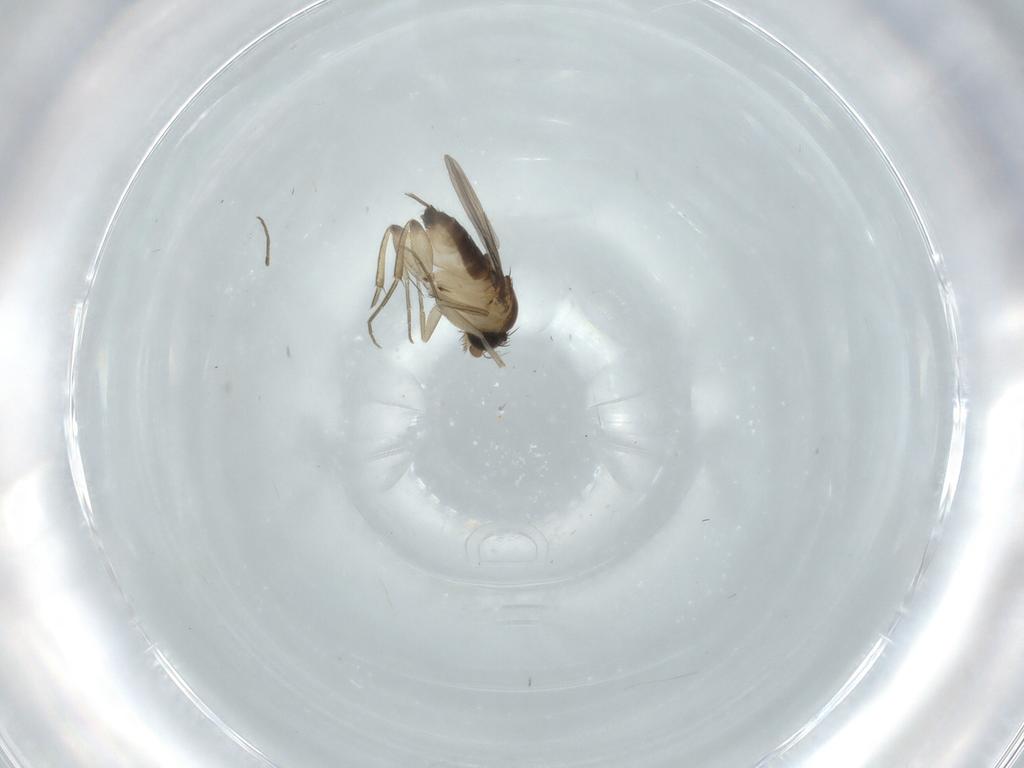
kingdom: Animalia
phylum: Arthropoda
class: Insecta
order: Diptera
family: Phoridae
